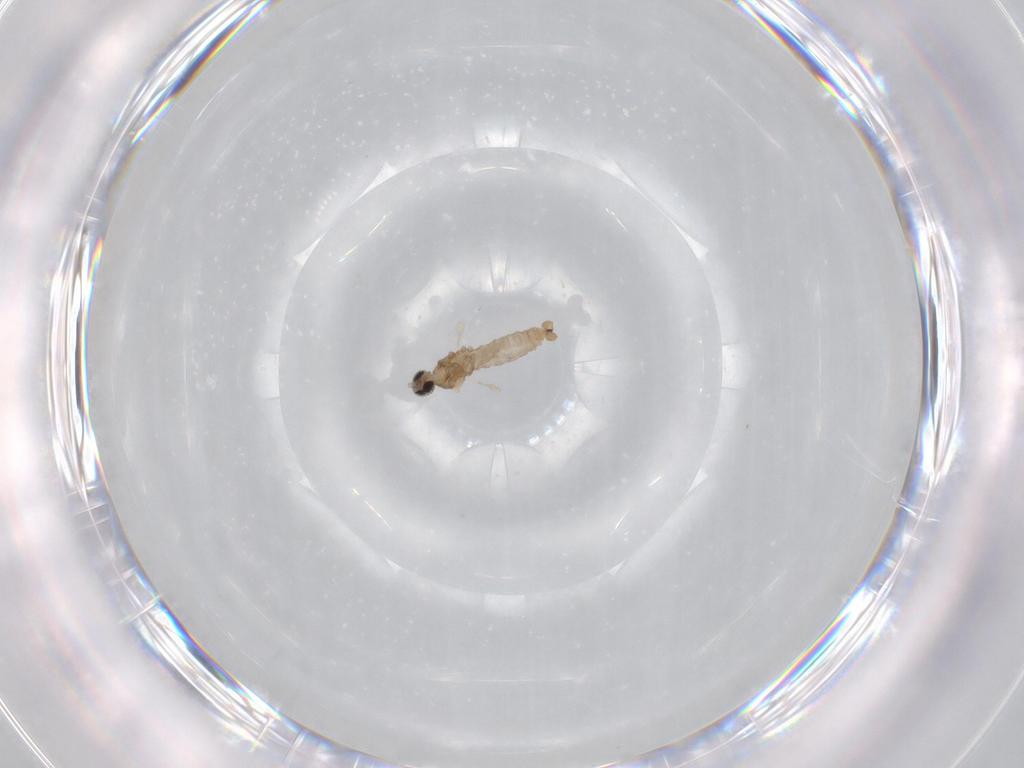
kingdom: Animalia
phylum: Arthropoda
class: Insecta
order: Diptera
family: Cecidomyiidae
